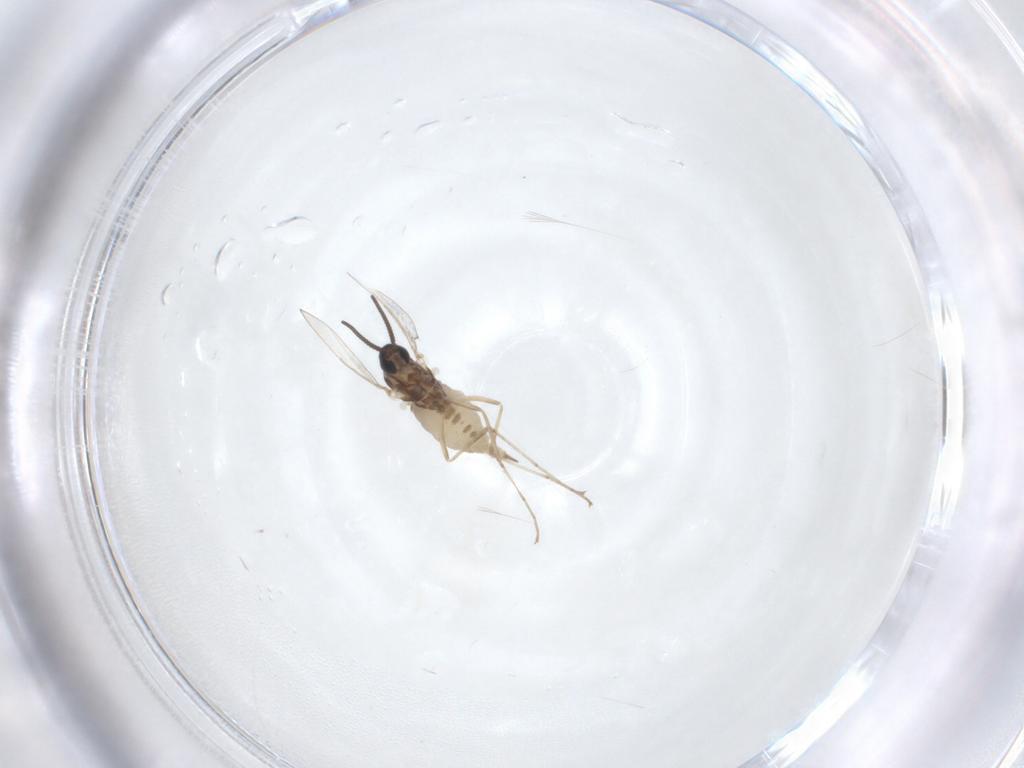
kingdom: Animalia
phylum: Arthropoda
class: Insecta
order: Diptera
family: Cecidomyiidae
